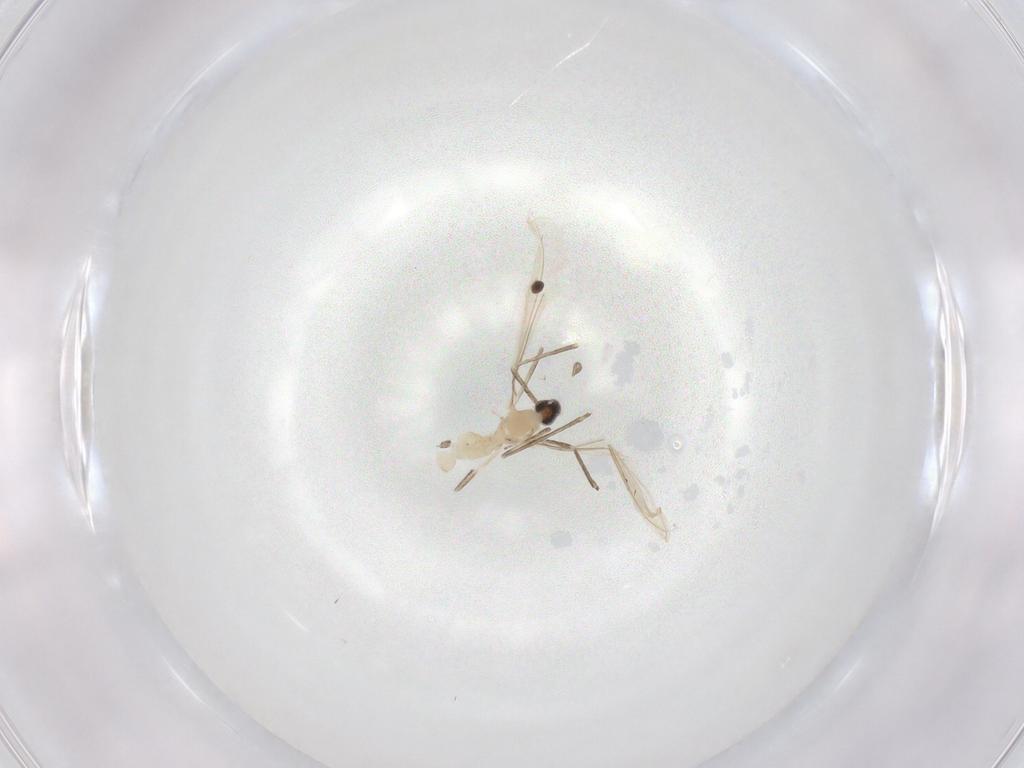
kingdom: Animalia
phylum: Arthropoda
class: Insecta
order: Diptera
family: Cecidomyiidae
